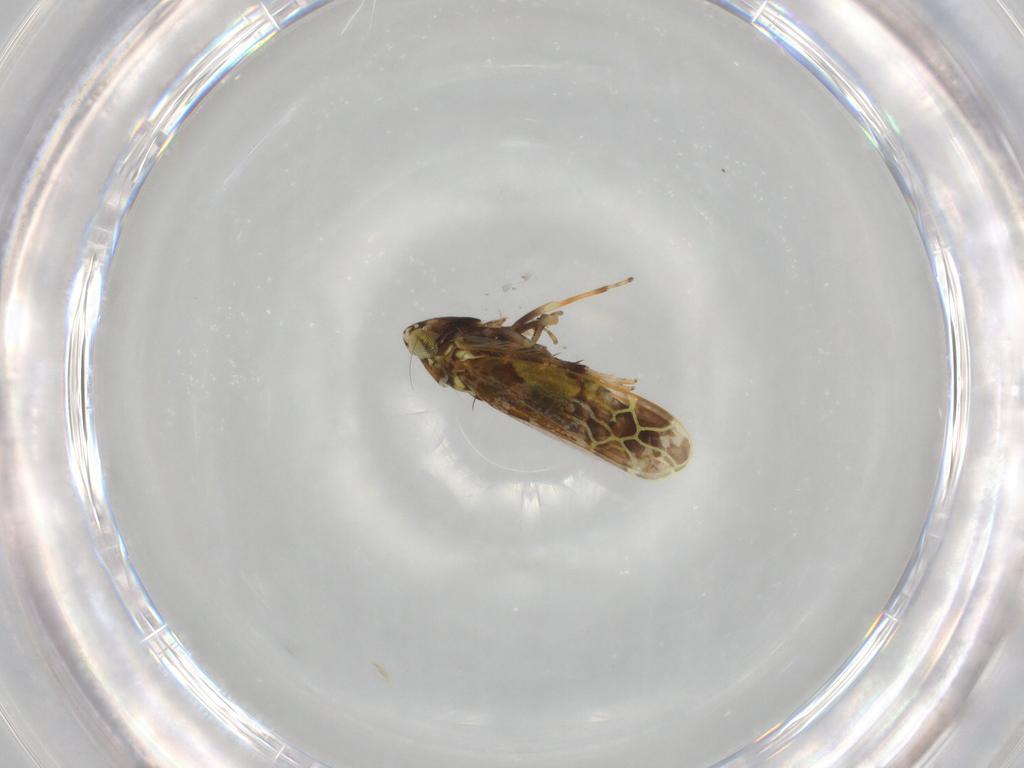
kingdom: Animalia
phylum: Arthropoda
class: Insecta
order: Hemiptera
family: Cicadellidae
